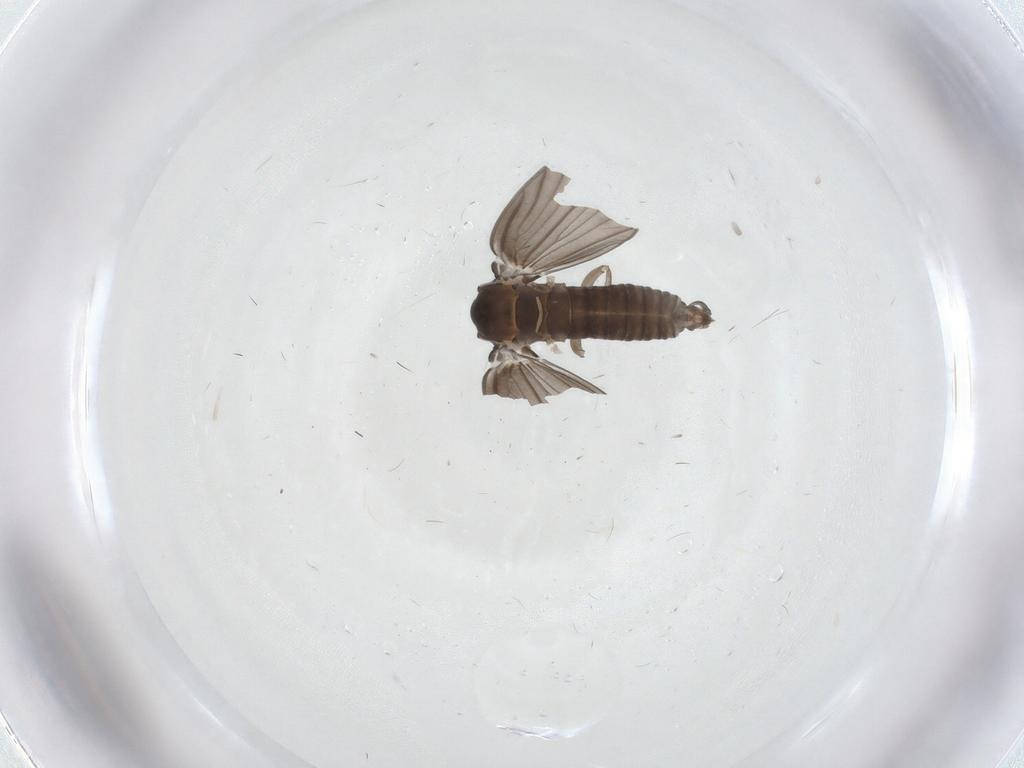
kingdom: Animalia
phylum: Arthropoda
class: Insecta
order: Diptera
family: Psychodidae
